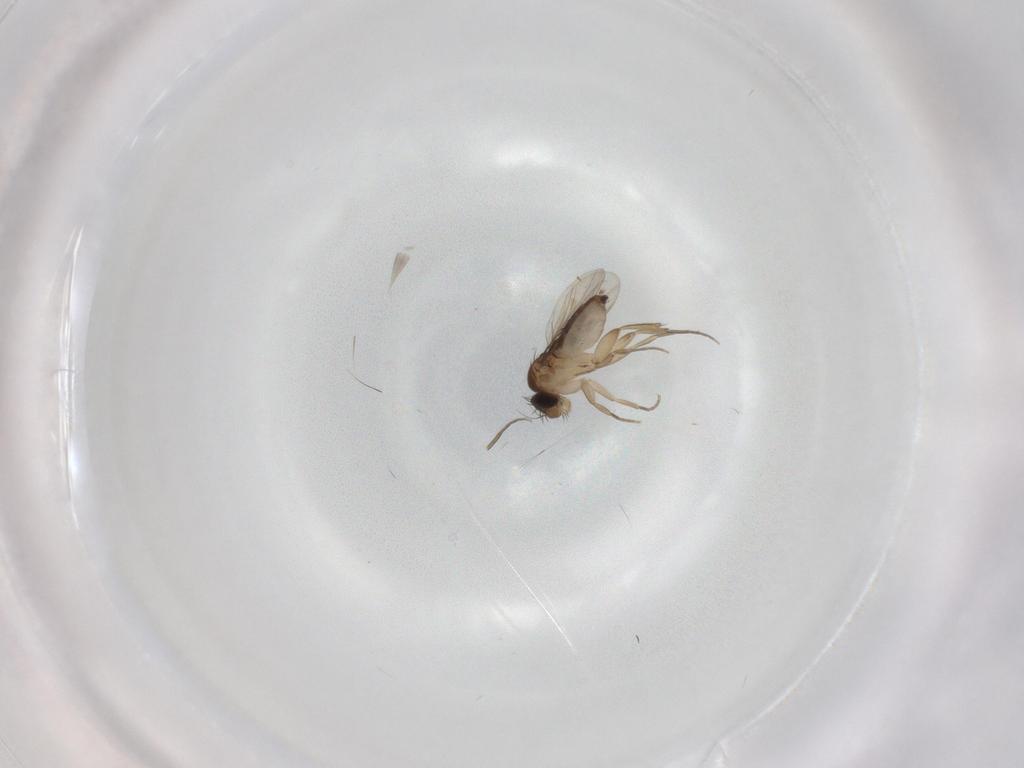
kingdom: Animalia
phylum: Arthropoda
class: Insecta
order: Diptera
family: Phoridae
